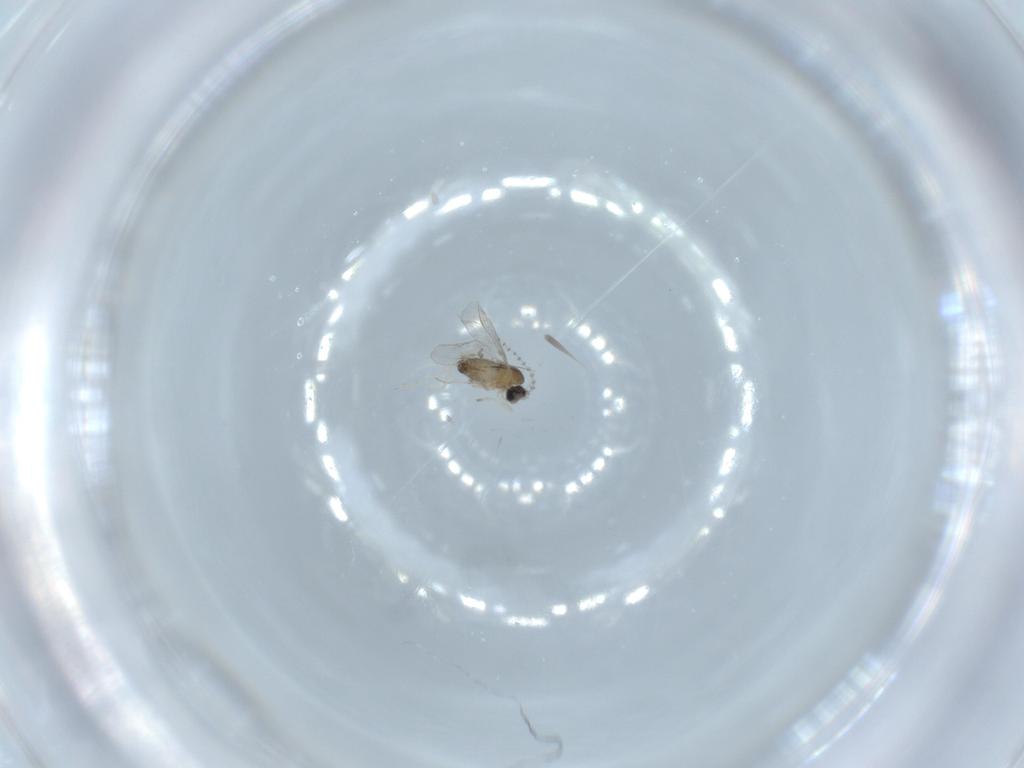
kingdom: Animalia
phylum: Arthropoda
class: Insecta
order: Diptera
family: Cecidomyiidae
